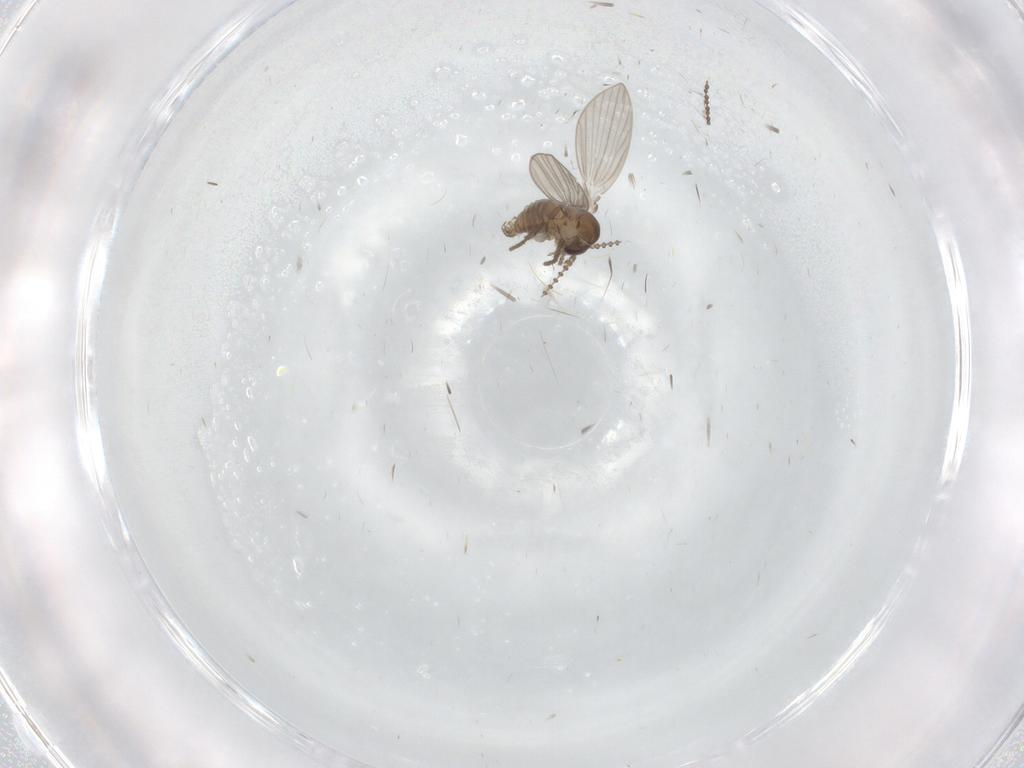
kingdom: Animalia
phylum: Arthropoda
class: Insecta
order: Diptera
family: Psychodidae
